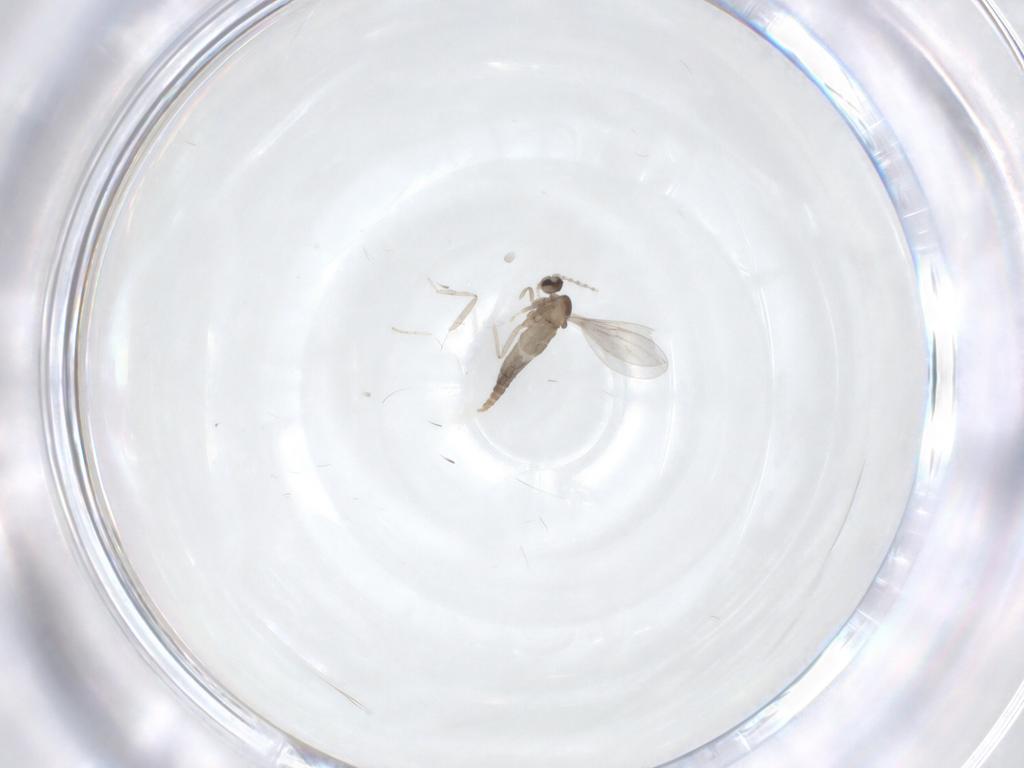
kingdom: Animalia
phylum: Arthropoda
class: Insecta
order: Diptera
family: Cecidomyiidae
